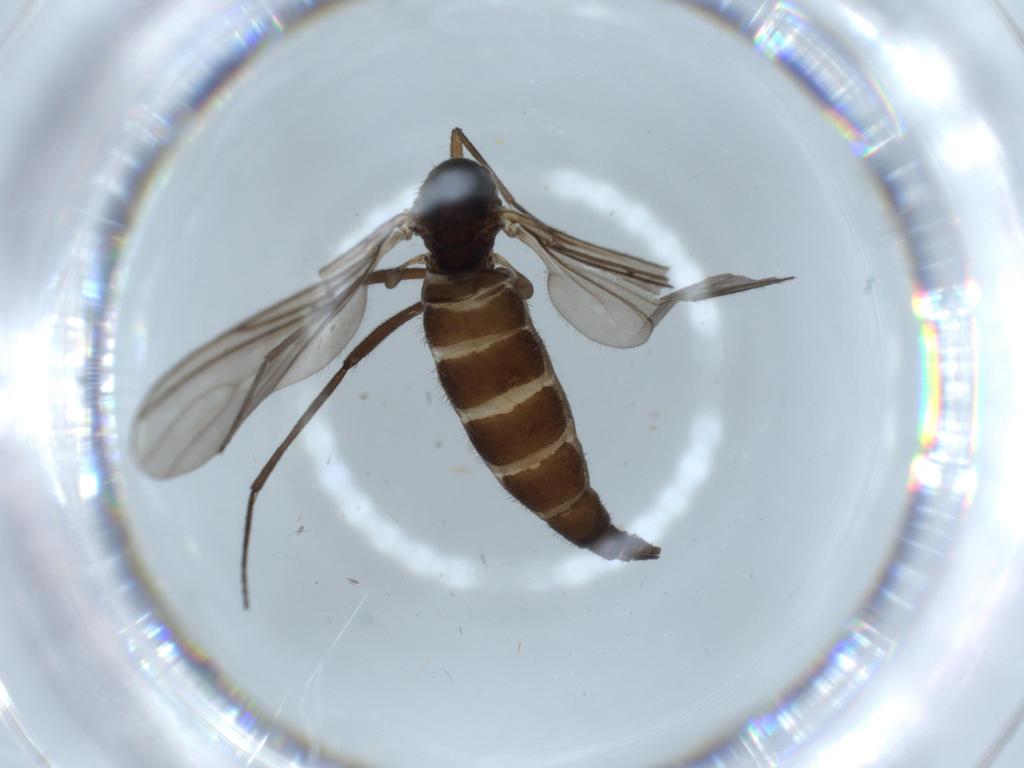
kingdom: Animalia
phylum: Arthropoda
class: Insecta
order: Diptera
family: Sciaridae
